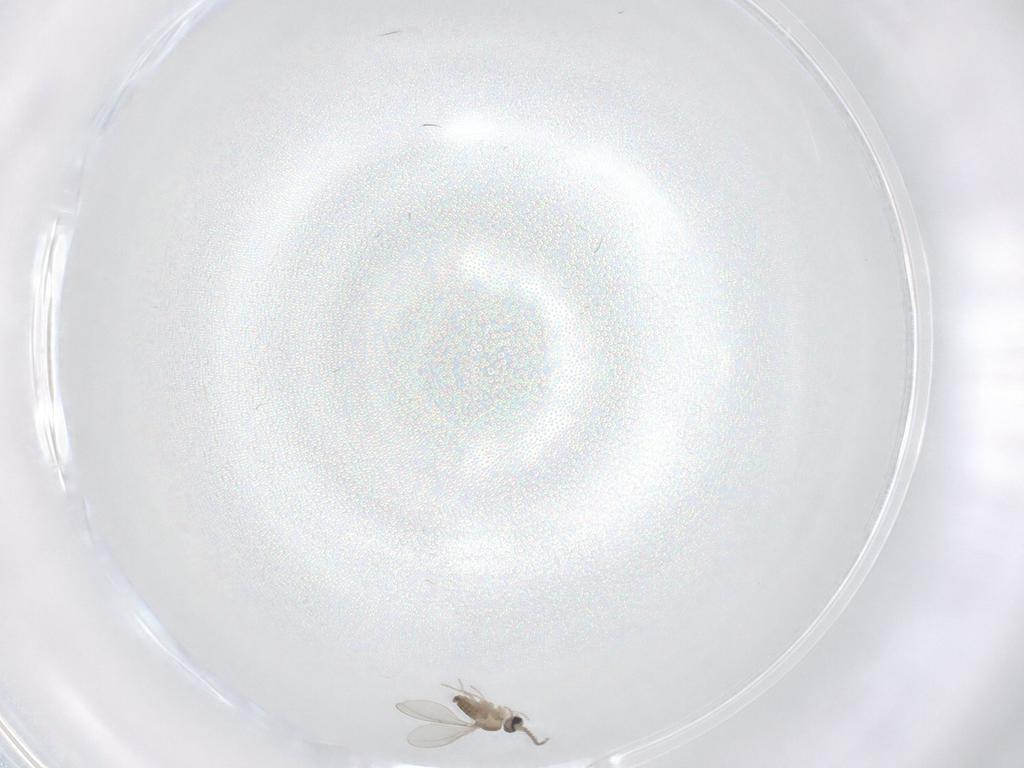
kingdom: Animalia
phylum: Arthropoda
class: Insecta
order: Diptera
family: Cecidomyiidae
